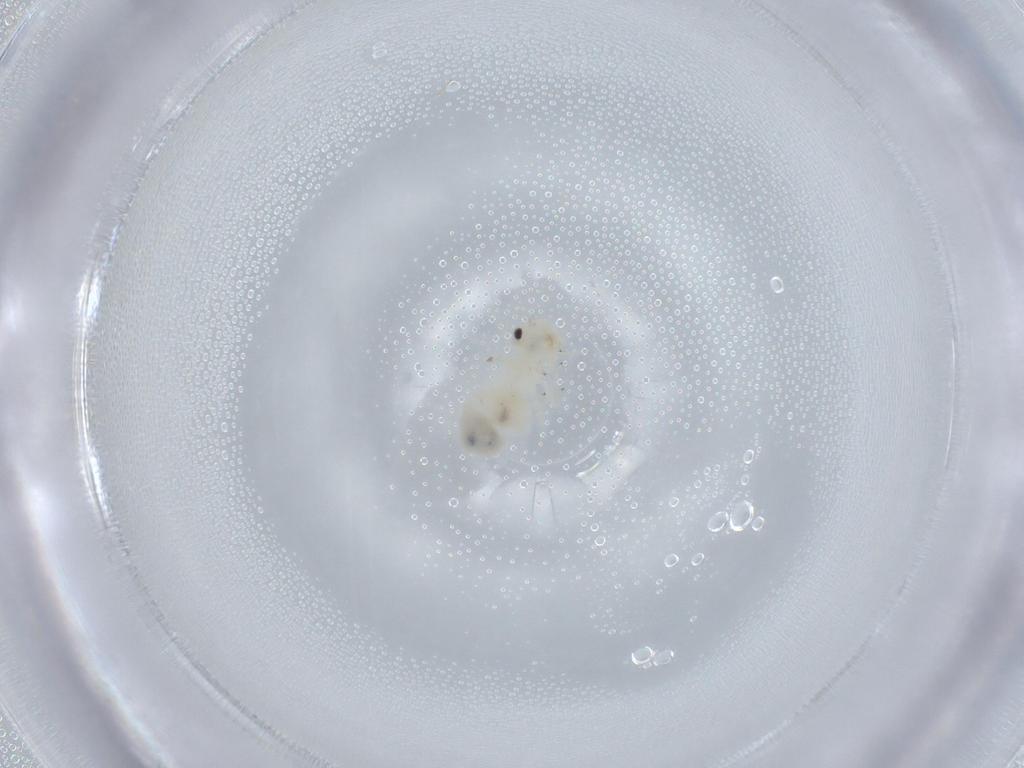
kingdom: Animalia
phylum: Arthropoda
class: Insecta
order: Psocodea
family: Caeciliusidae
